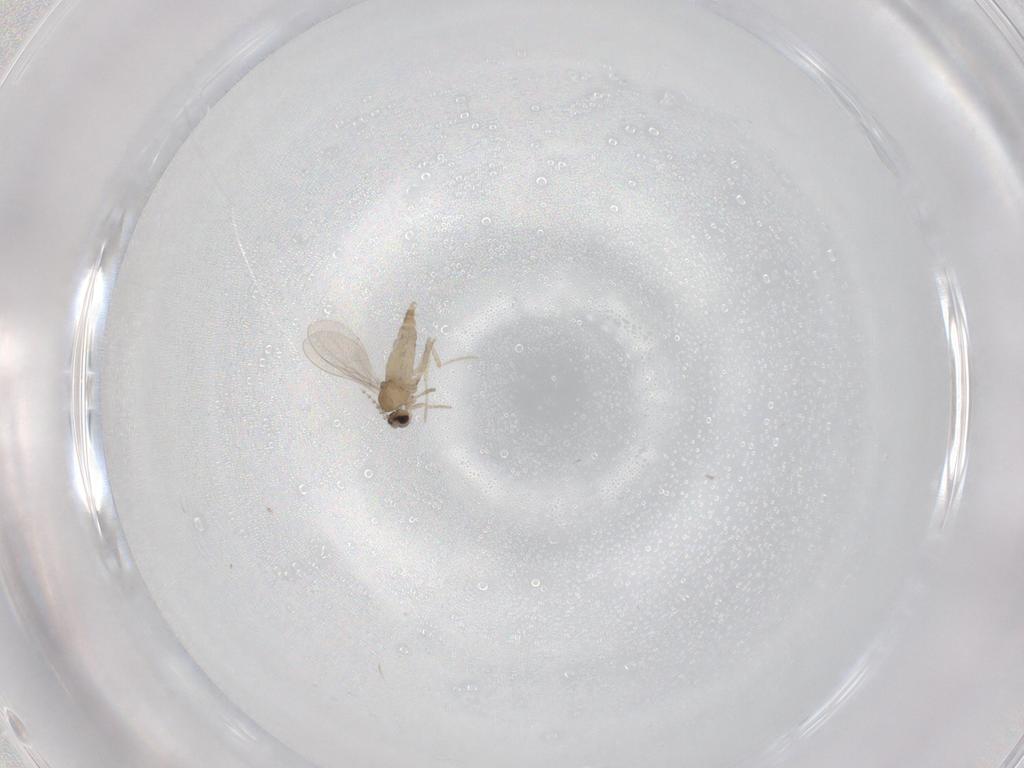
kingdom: Animalia
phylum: Arthropoda
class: Insecta
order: Diptera
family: Cecidomyiidae
